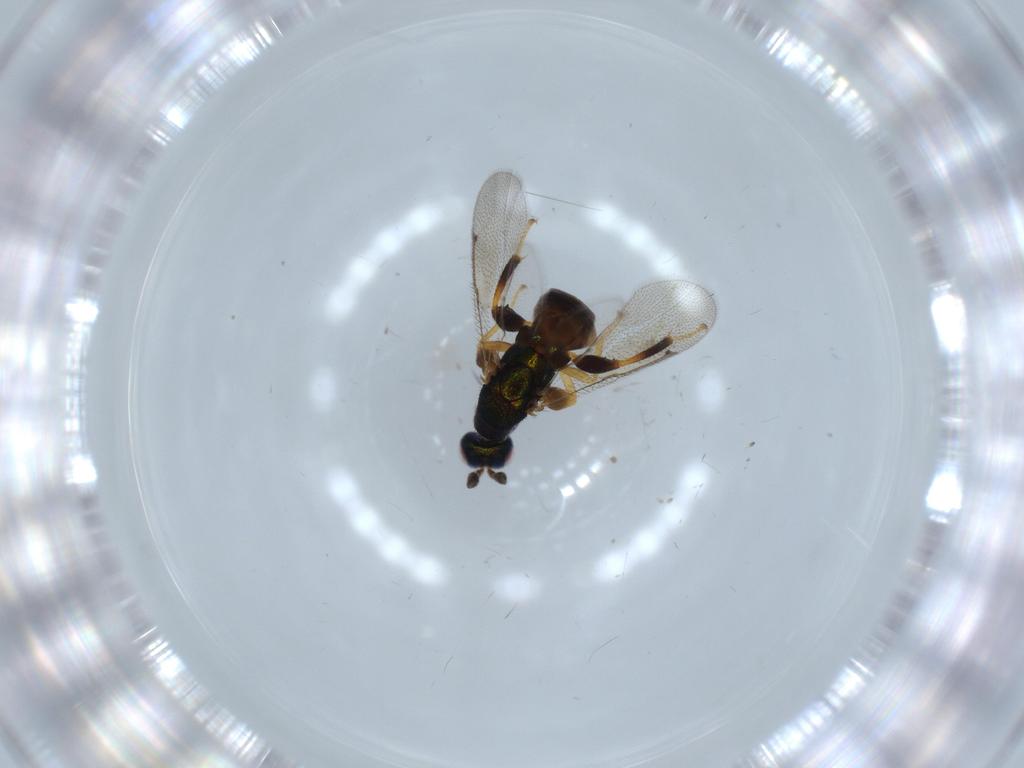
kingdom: Animalia
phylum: Arthropoda
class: Insecta
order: Hymenoptera
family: Torymidae
